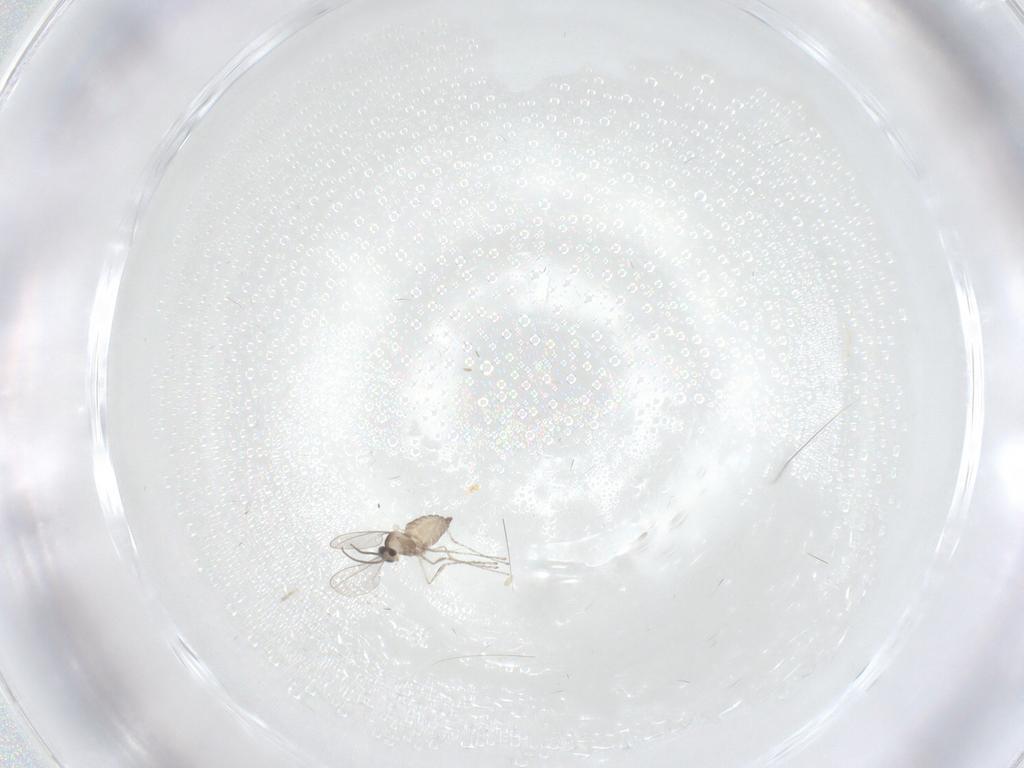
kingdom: Animalia
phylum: Arthropoda
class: Insecta
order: Diptera
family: Cecidomyiidae
